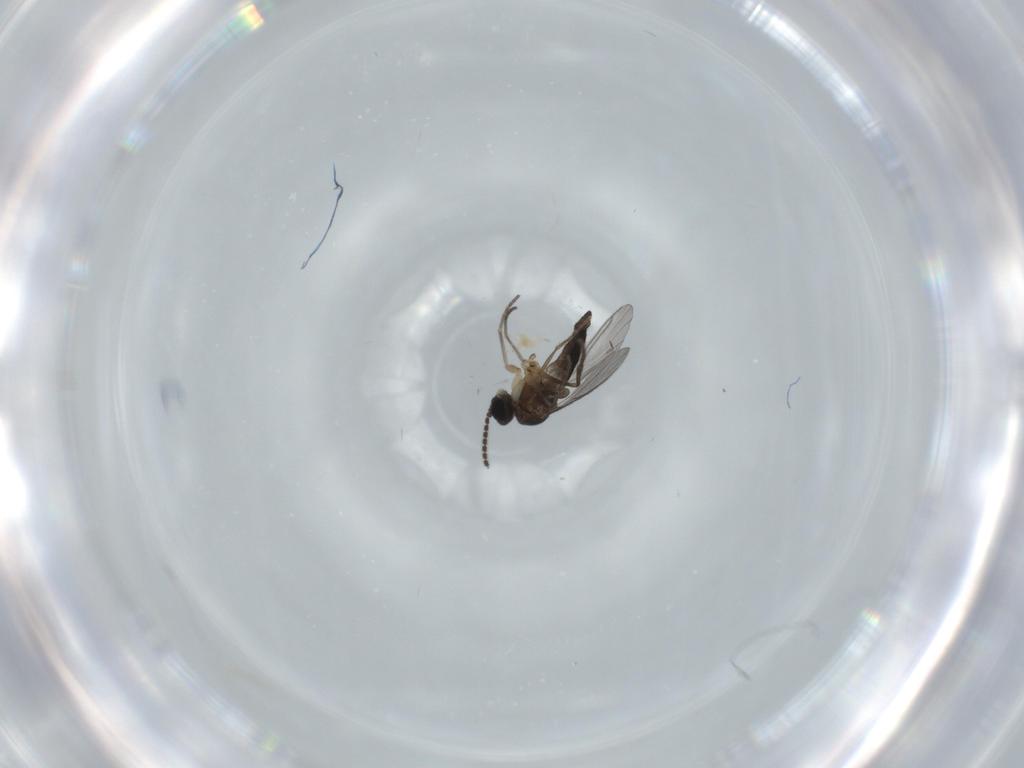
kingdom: Animalia
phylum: Arthropoda
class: Insecta
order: Diptera
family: Sciaridae
